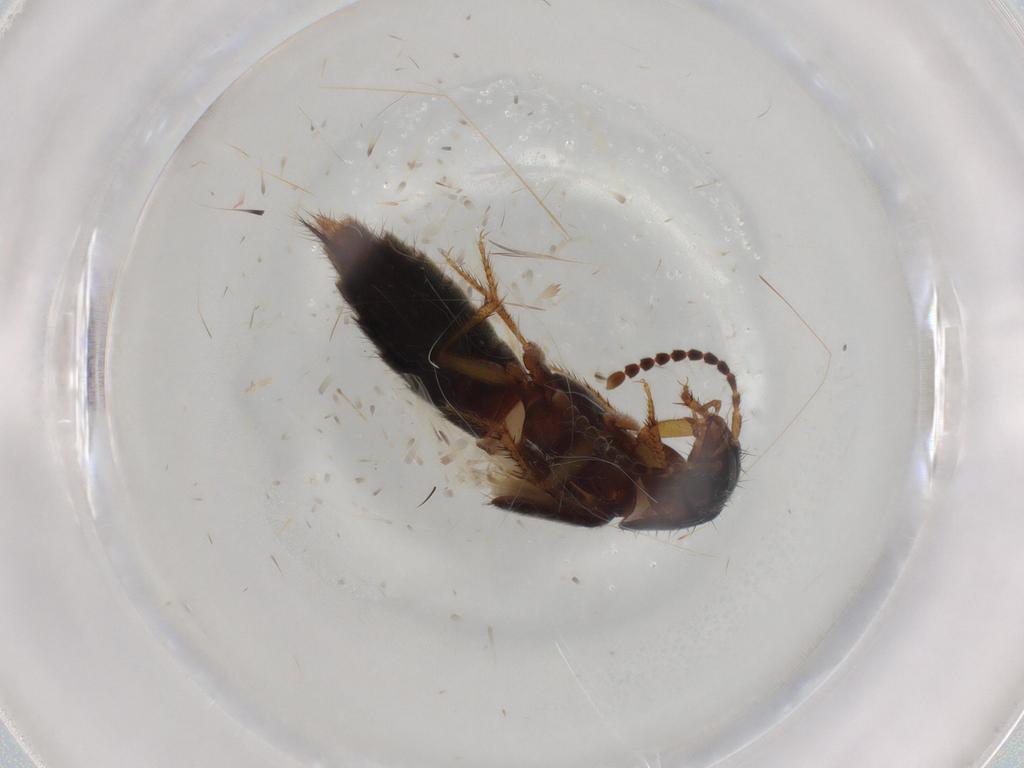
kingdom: Animalia
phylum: Arthropoda
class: Insecta
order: Coleoptera
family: Staphylinidae
